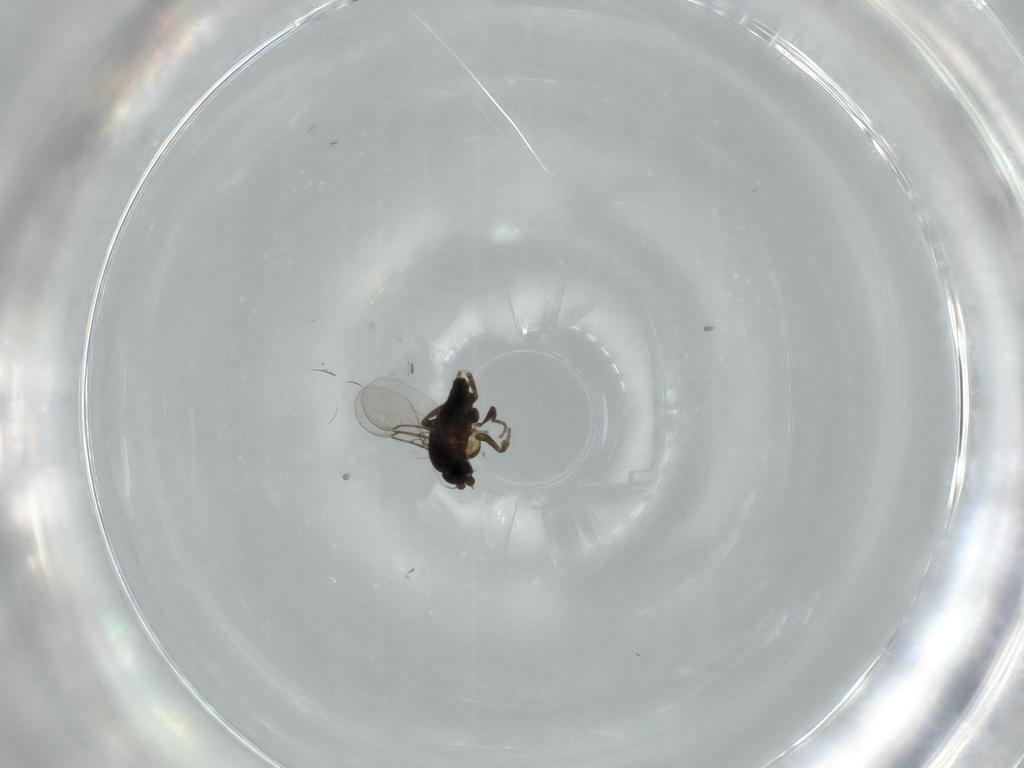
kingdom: Animalia
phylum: Arthropoda
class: Insecta
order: Diptera
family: Phoridae
